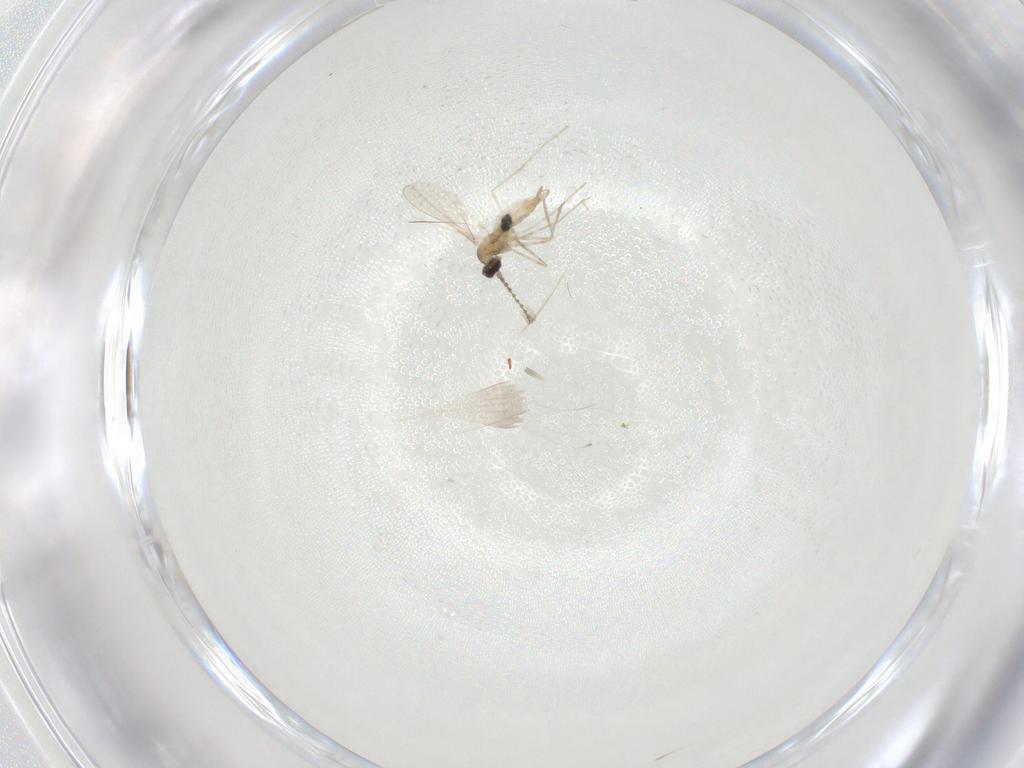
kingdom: Animalia
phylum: Arthropoda
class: Insecta
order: Diptera
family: Cecidomyiidae
